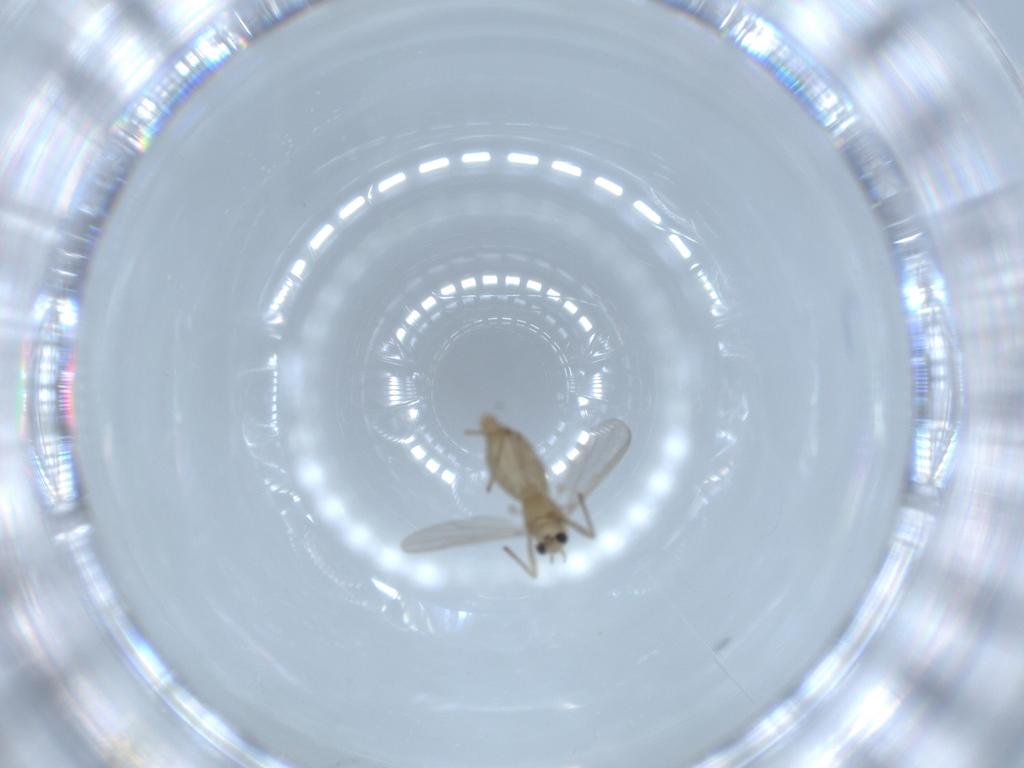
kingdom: Animalia
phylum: Arthropoda
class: Insecta
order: Diptera
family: Chironomidae
